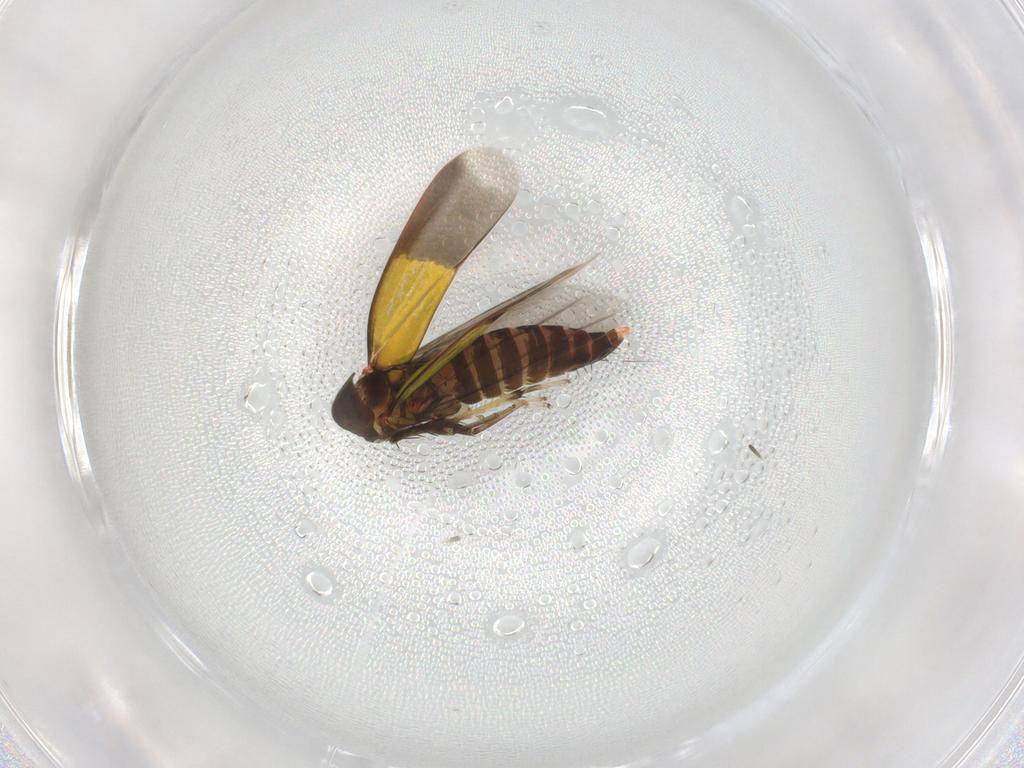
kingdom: Animalia
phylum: Arthropoda
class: Insecta
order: Hemiptera
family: Cicadellidae
